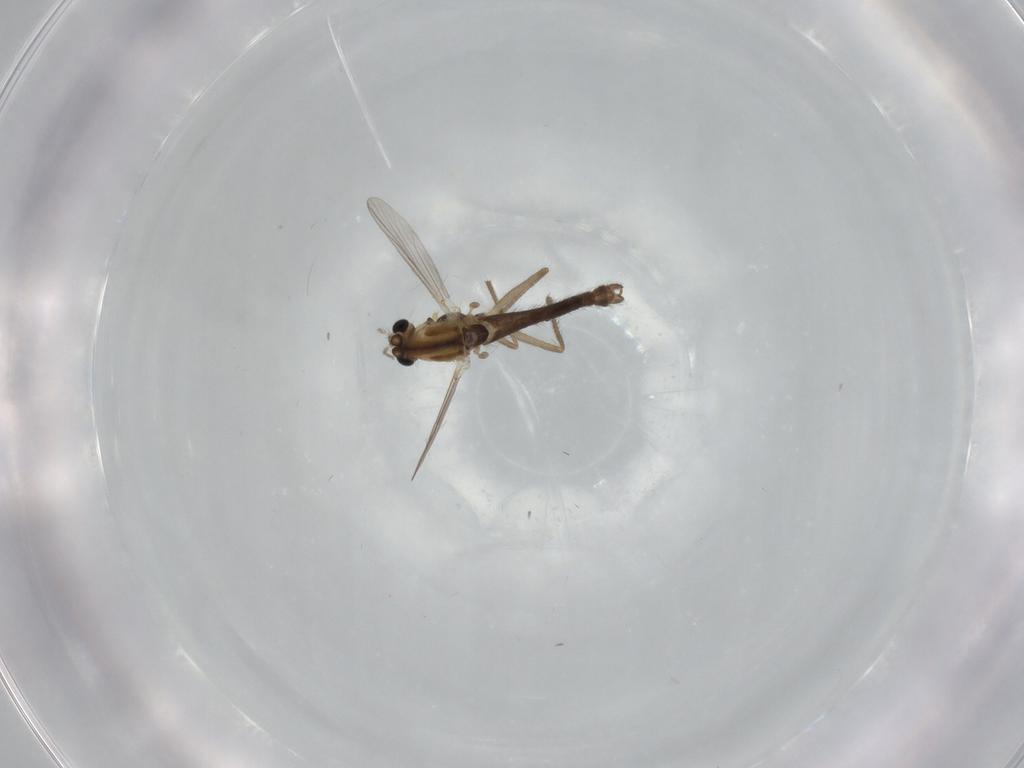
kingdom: Animalia
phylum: Arthropoda
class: Insecta
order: Diptera
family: Chironomidae
